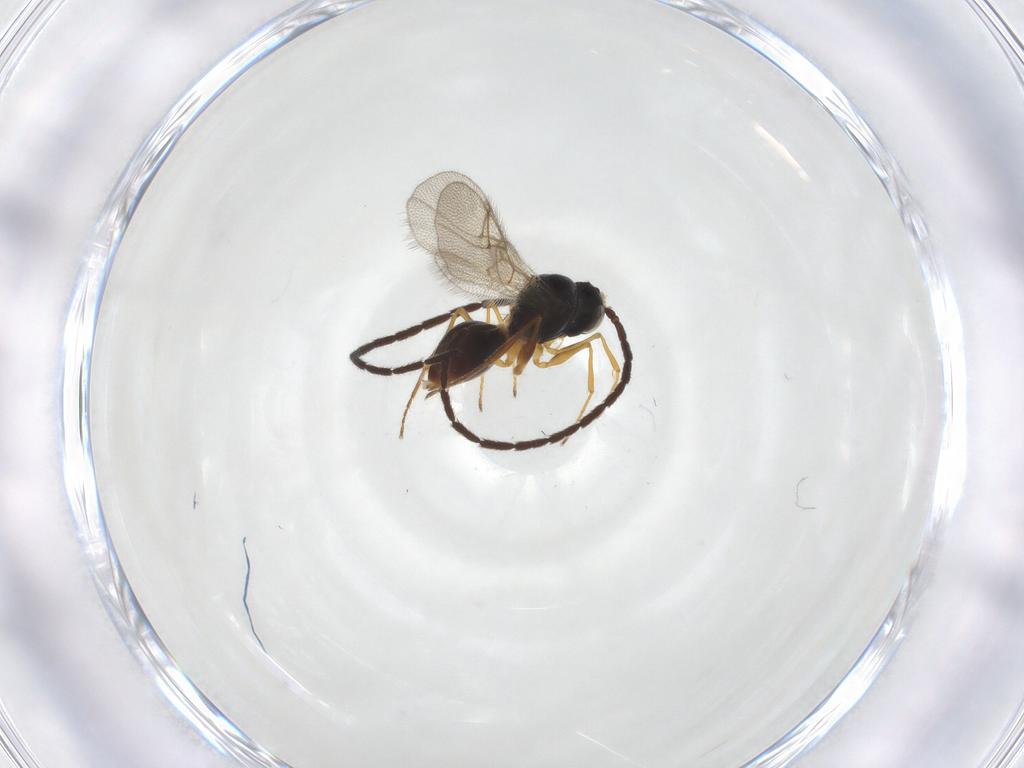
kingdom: Animalia
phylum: Arthropoda
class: Insecta
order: Hymenoptera
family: Figitidae
